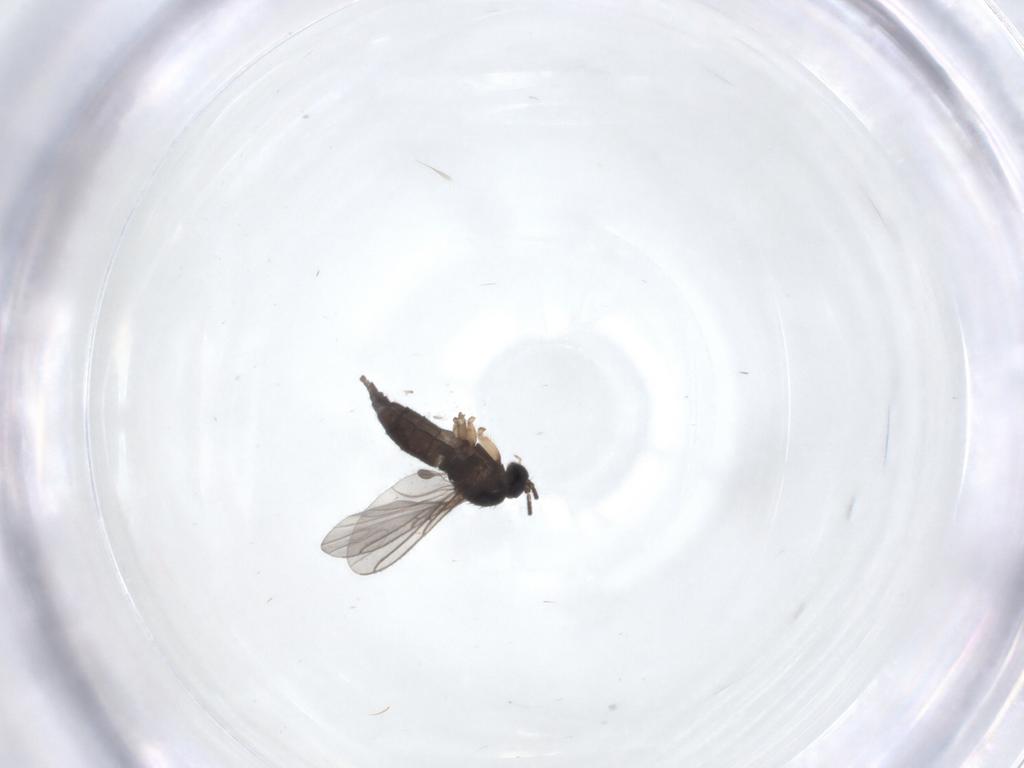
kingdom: Animalia
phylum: Arthropoda
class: Insecta
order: Diptera
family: Sciaridae
